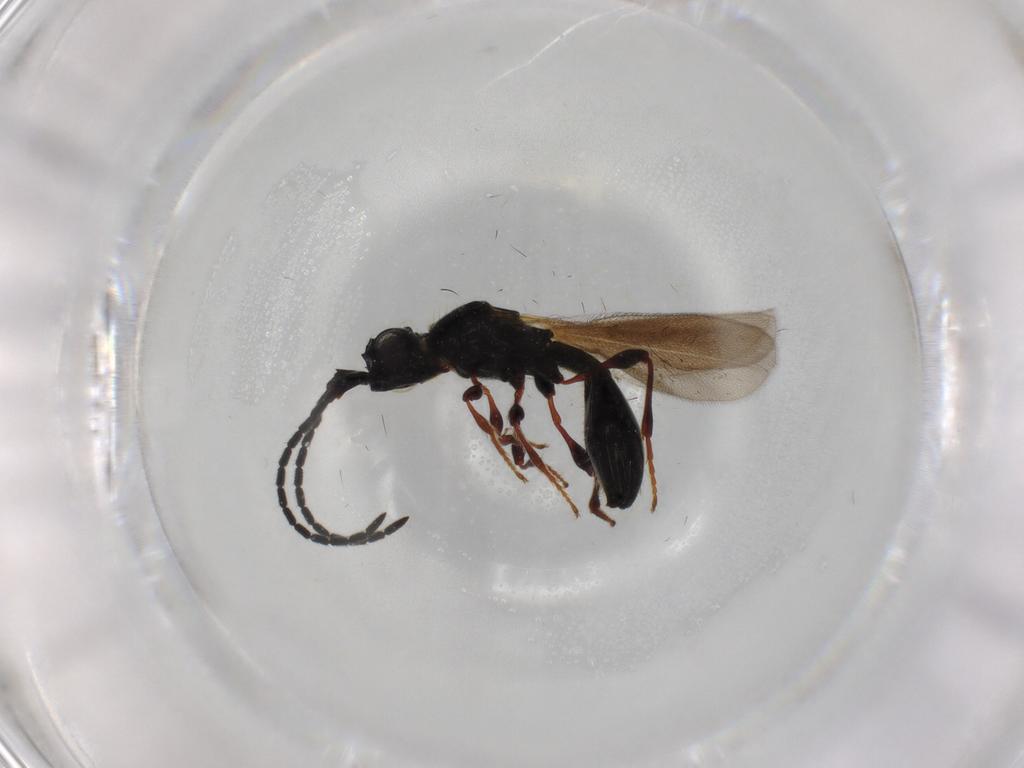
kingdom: Animalia
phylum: Arthropoda
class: Insecta
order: Hymenoptera
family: Diapriidae
